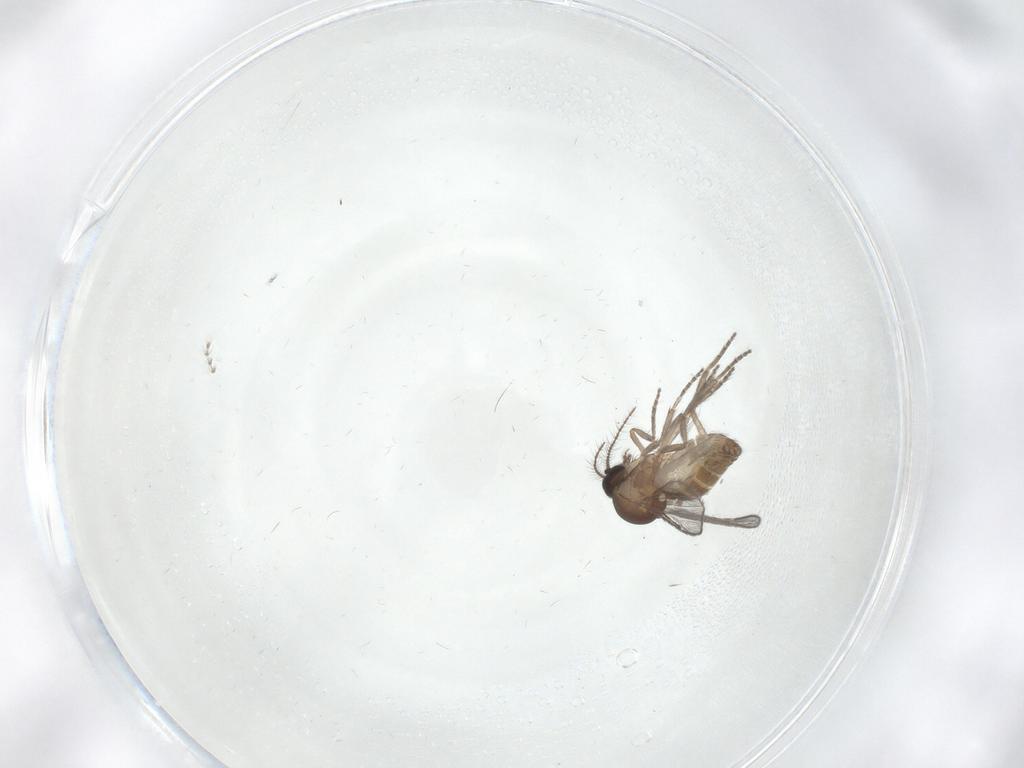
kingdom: Animalia
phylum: Arthropoda
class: Insecta
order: Diptera
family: Ceratopogonidae
